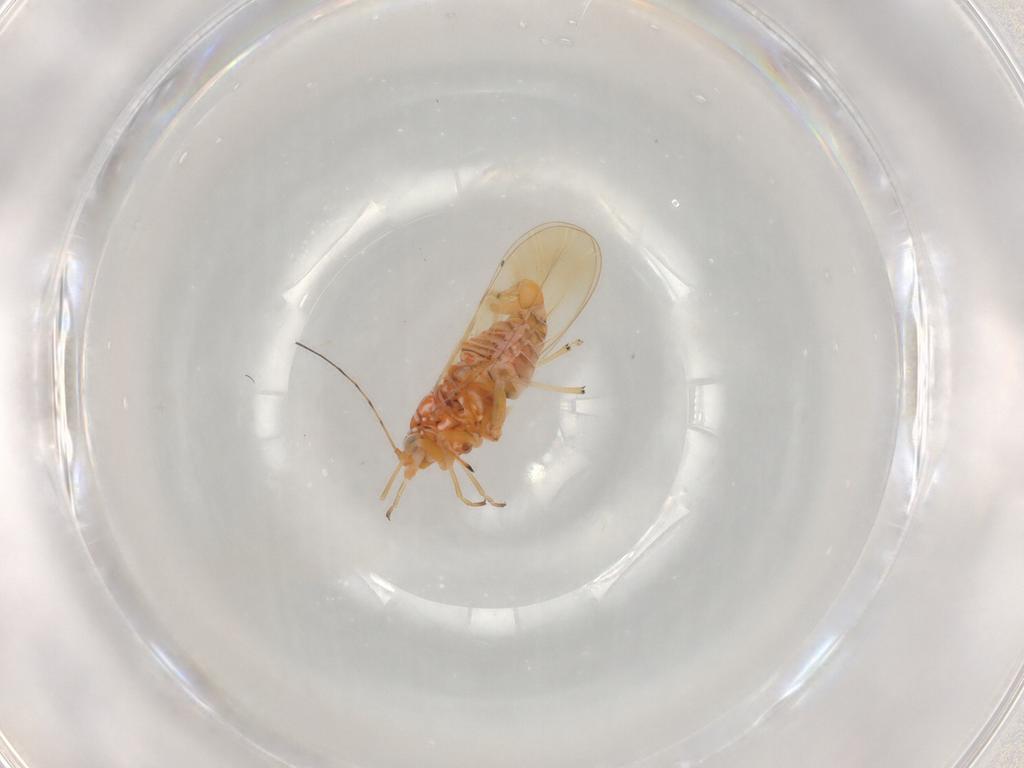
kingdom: Animalia
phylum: Arthropoda
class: Insecta
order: Hemiptera
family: Psyllidae
